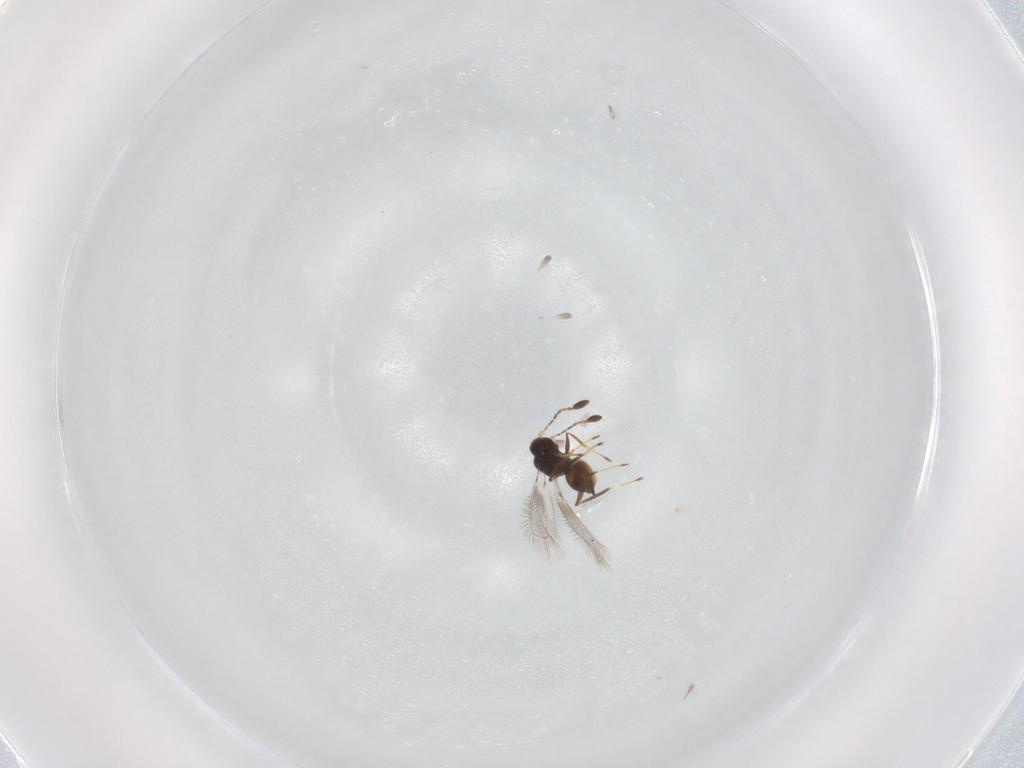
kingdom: Animalia
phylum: Arthropoda
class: Insecta
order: Hymenoptera
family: Mymaridae
